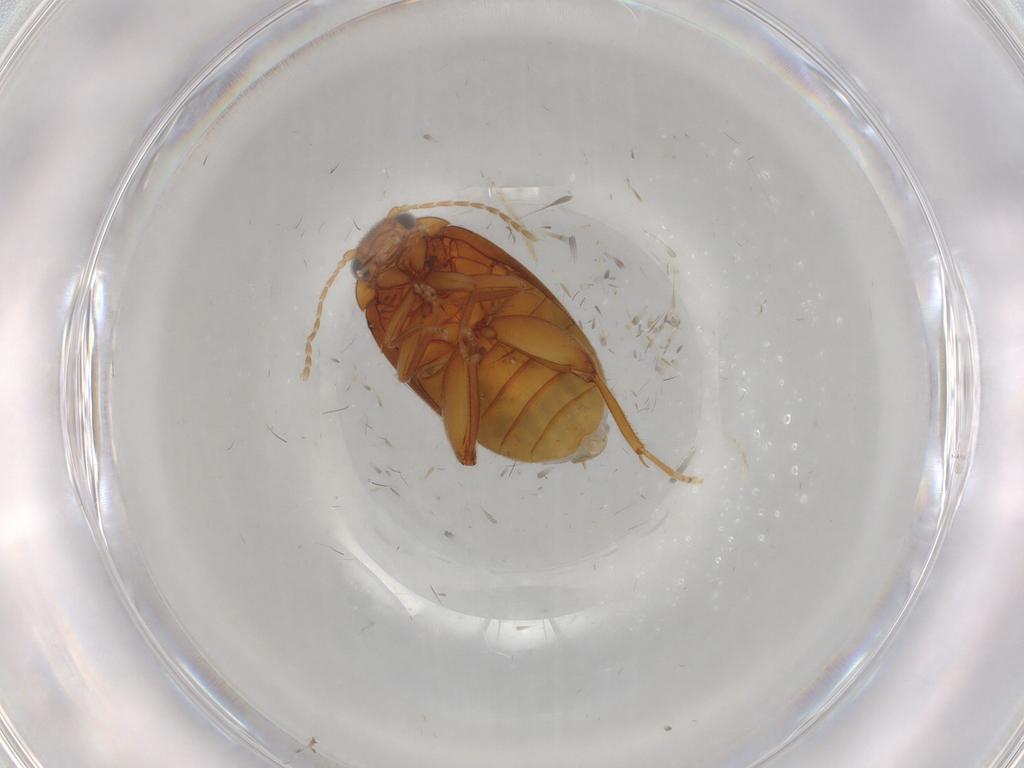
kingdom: Animalia
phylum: Arthropoda
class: Insecta
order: Coleoptera
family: Scirtidae
